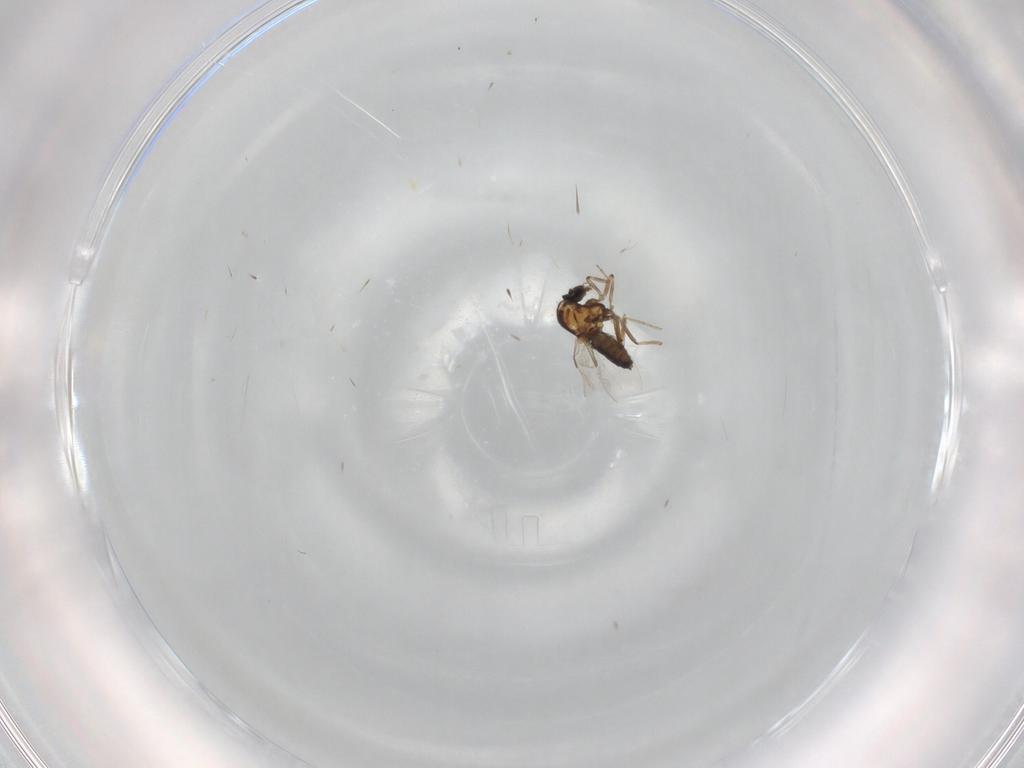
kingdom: Animalia
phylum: Arthropoda
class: Insecta
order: Diptera
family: Ceratopogonidae
